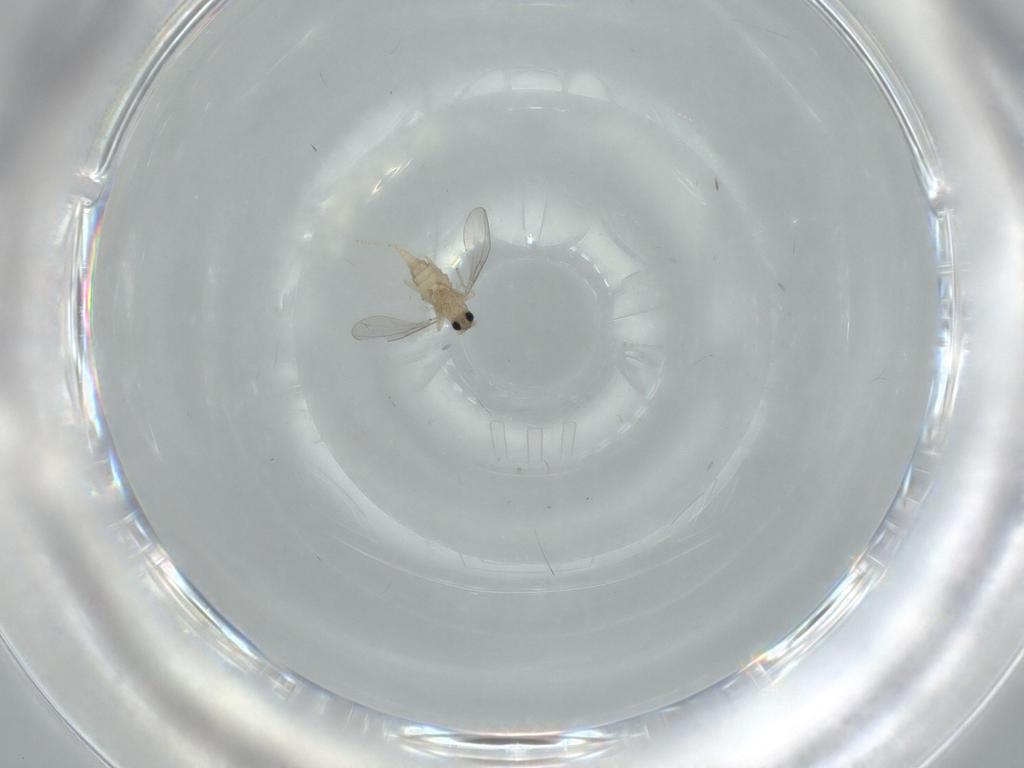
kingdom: Animalia
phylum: Arthropoda
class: Insecta
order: Diptera
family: Cecidomyiidae
